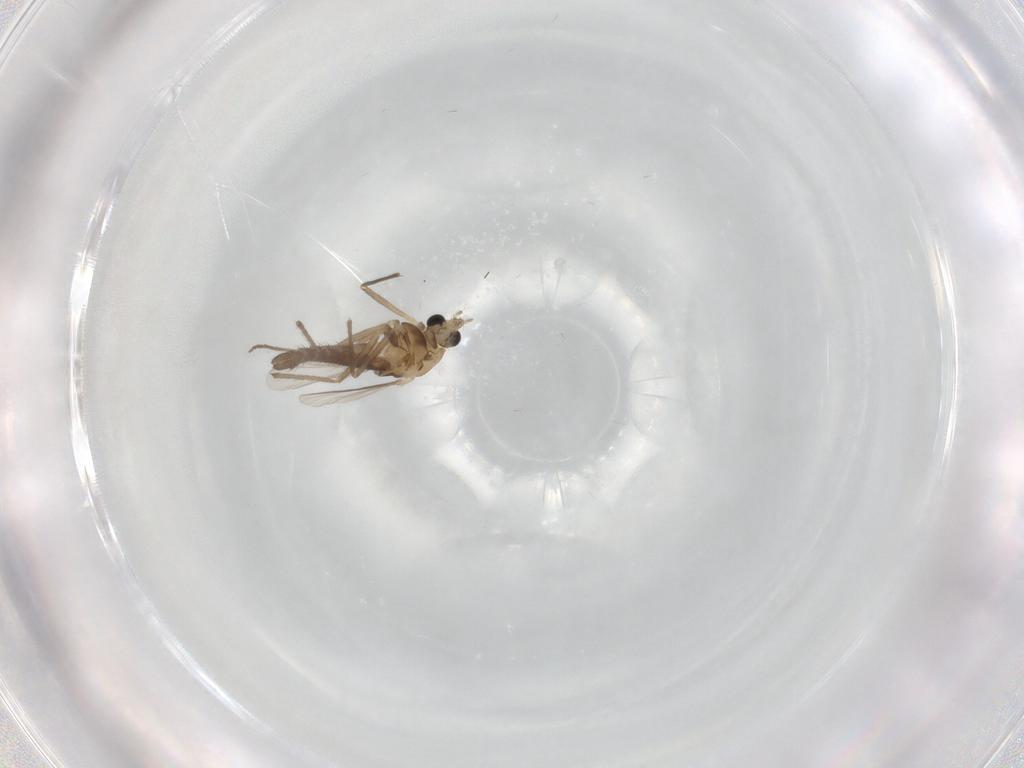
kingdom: Animalia
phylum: Arthropoda
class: Insecta
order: Diptera
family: Chironomidae
